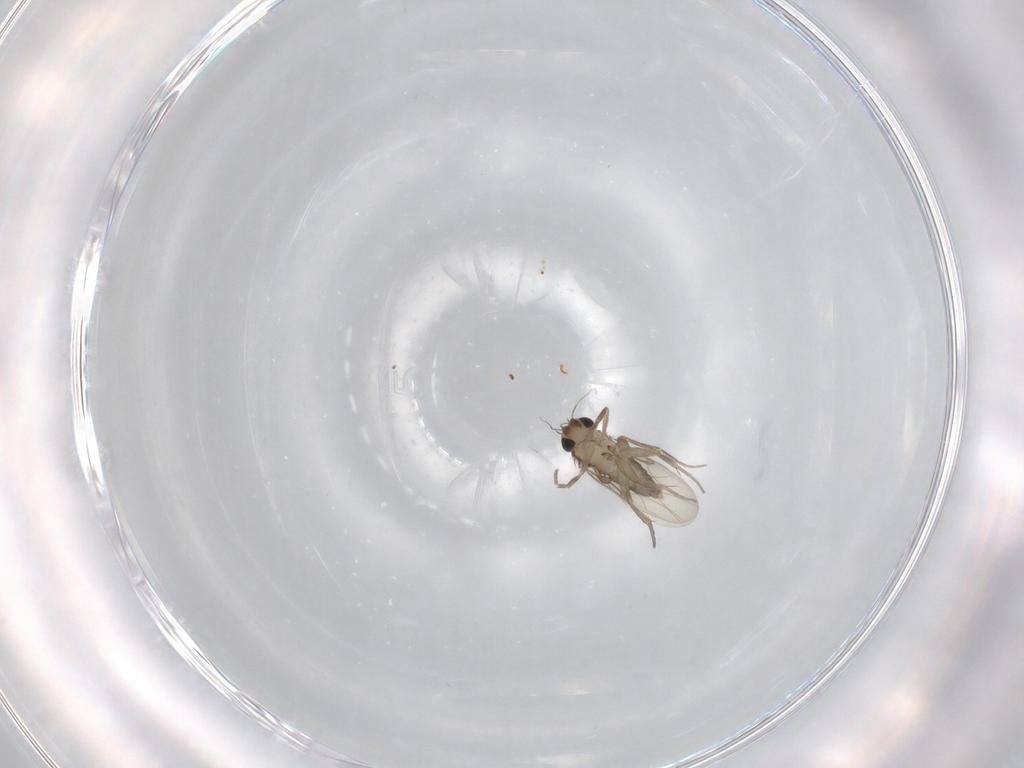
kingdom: Animalia
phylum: Arthropoda
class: Insecta
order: Diptera
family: Phoridae
